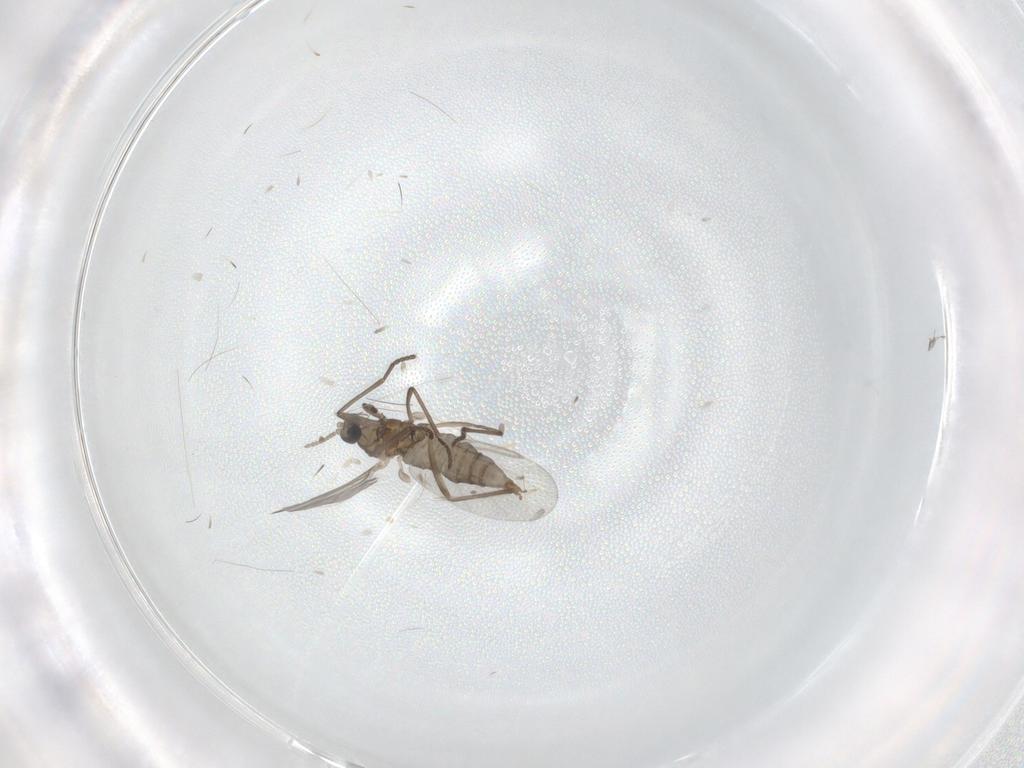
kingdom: Animalia
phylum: Arthropoda
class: Insecta
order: Diptera
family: Cecidomyiidae
